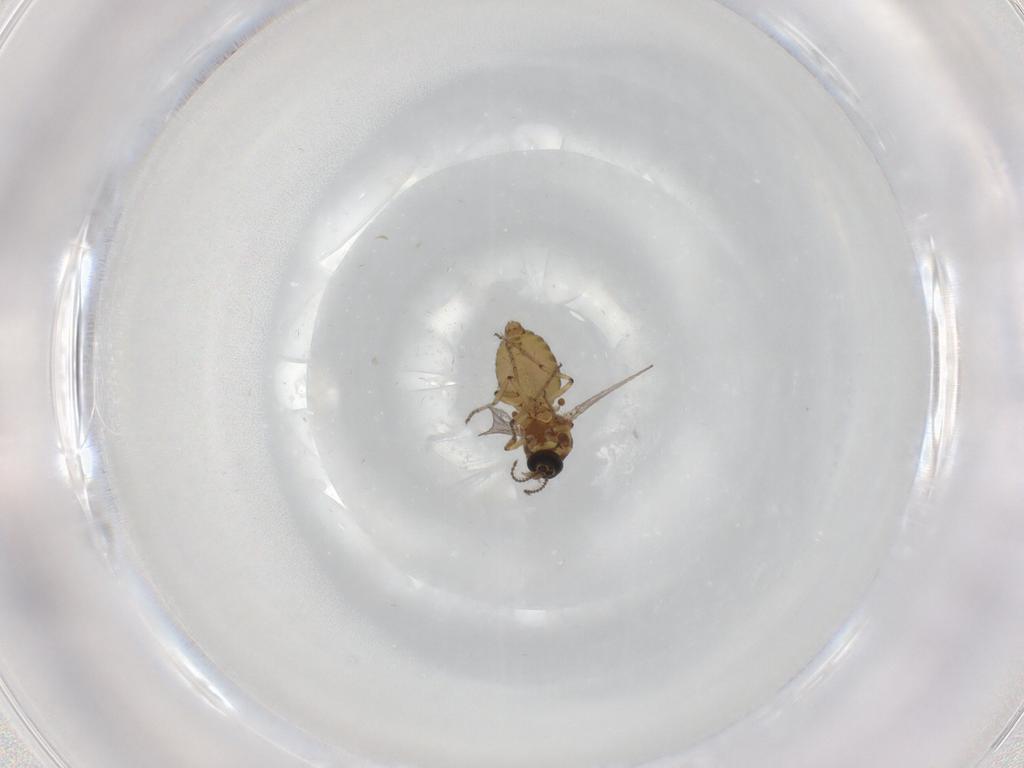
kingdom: Animalia
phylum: Arthropoda
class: Insecta
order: Diptera
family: Ceratopogonidae
